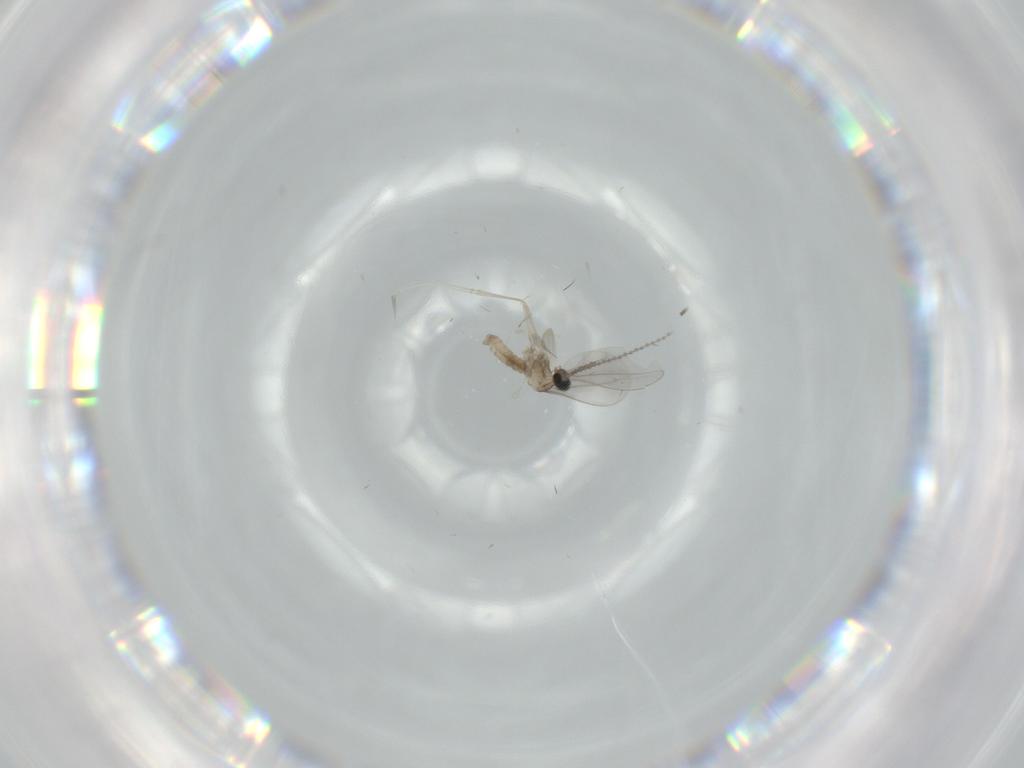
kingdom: Animalia
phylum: Arthropoda
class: Insecta
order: Diptera
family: Cecidomyiidae
